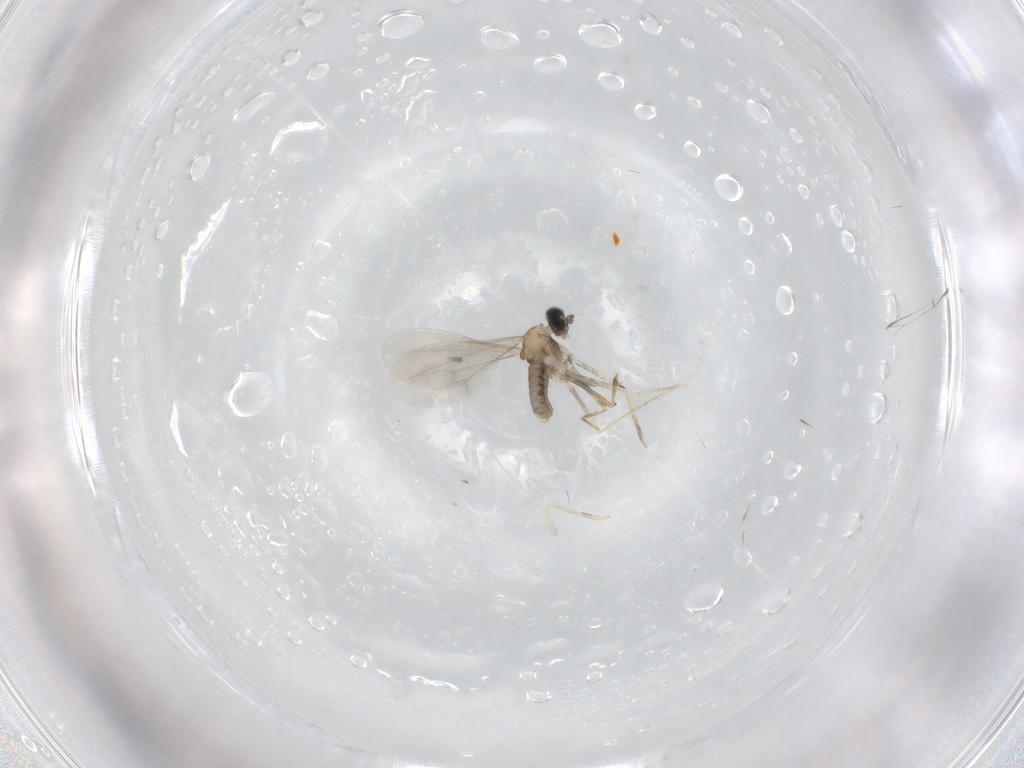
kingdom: Animalia
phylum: Arthropoda
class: Insecta
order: Diptera
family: Cecidomyiidae
